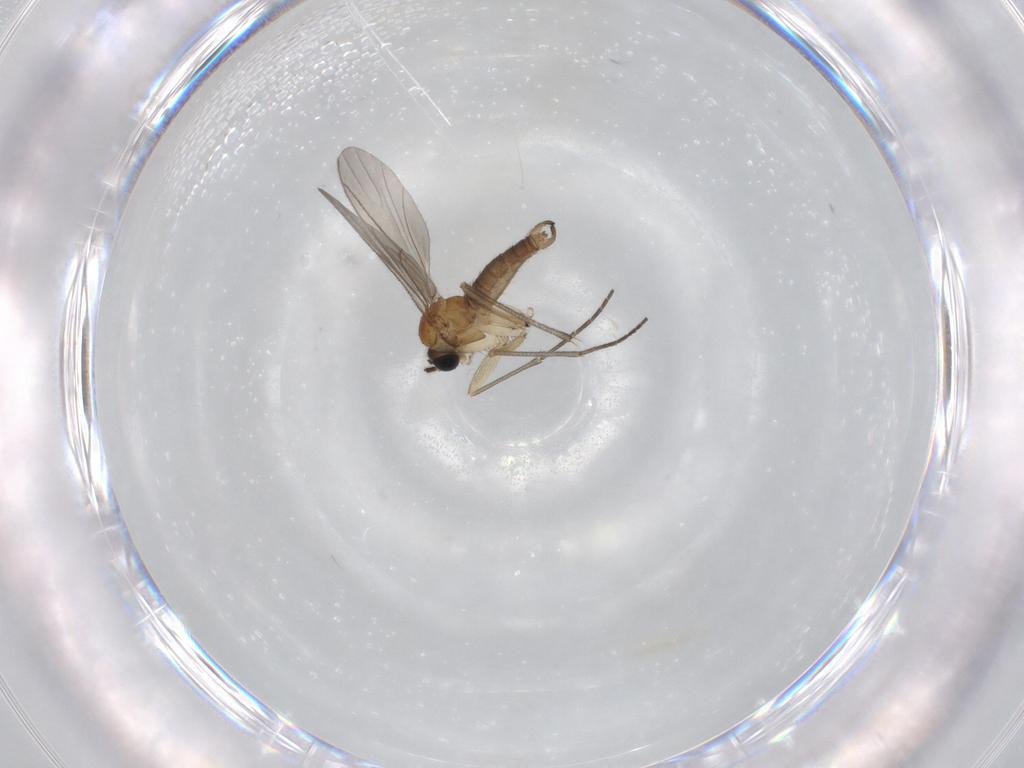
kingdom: Animalia
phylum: Arthropoda
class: Insecta
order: Diptera
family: Sciaridae
